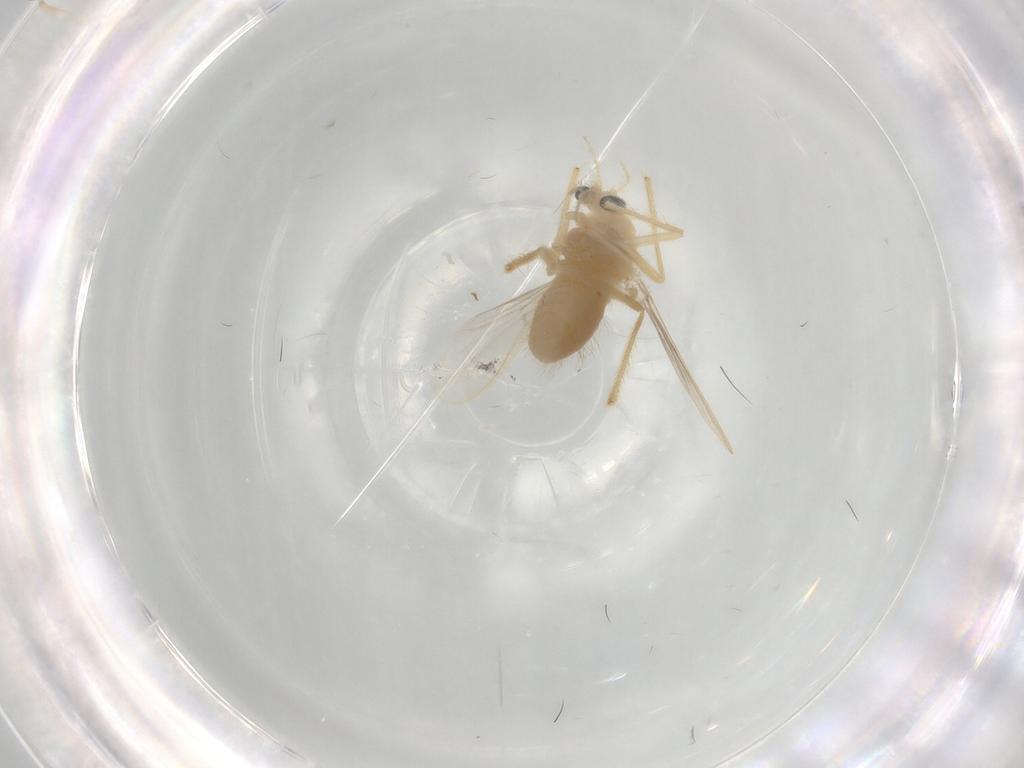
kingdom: Animalia
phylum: Arthropoda
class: Insecta
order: Diptera
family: Chironomidae
